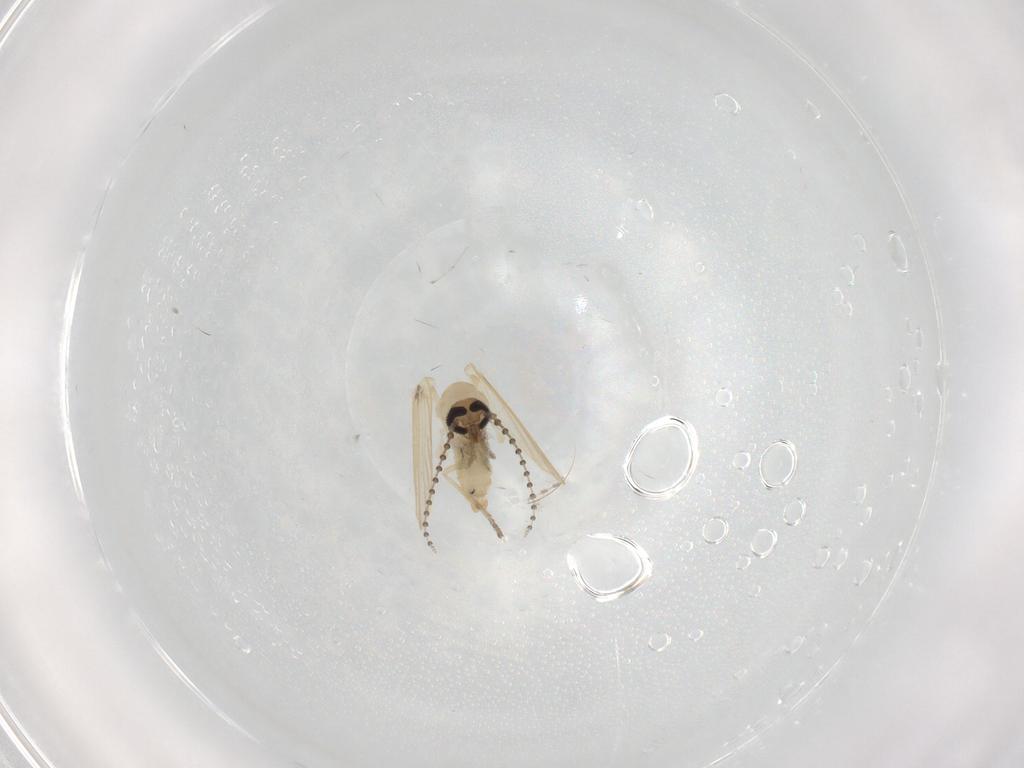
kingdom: Animalia
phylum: Arthropoda
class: Insecta
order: Diptera
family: Psychodidae
